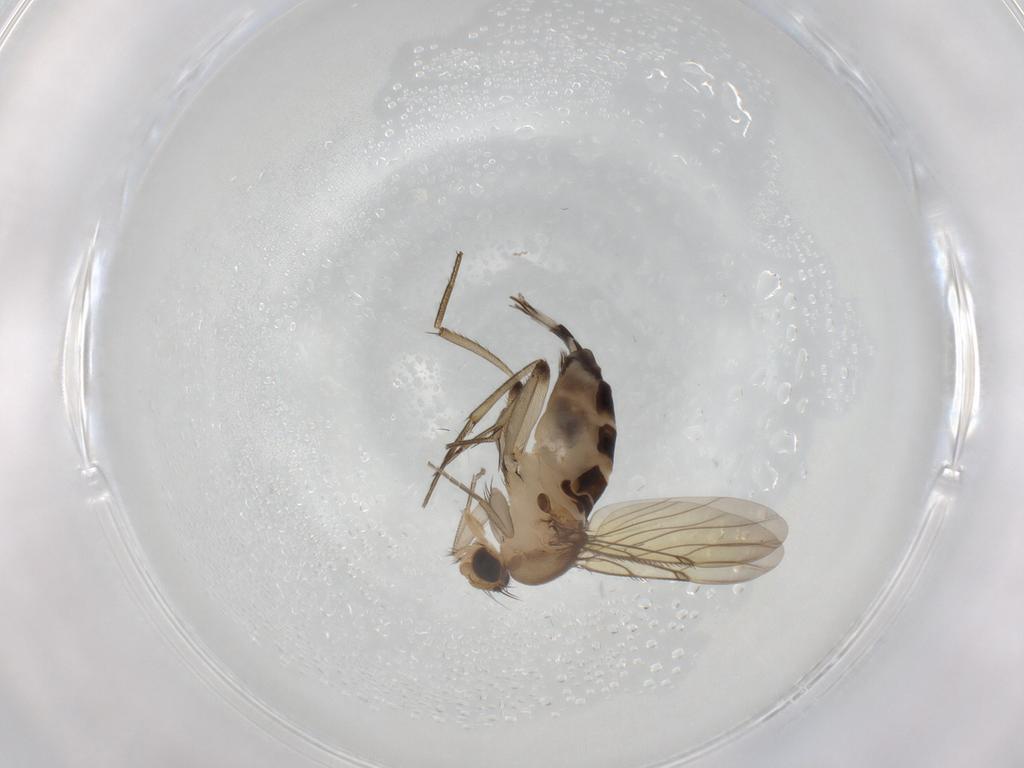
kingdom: Animalia
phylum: Arthropoda
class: Insecta
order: Diptera
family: Phoridae
